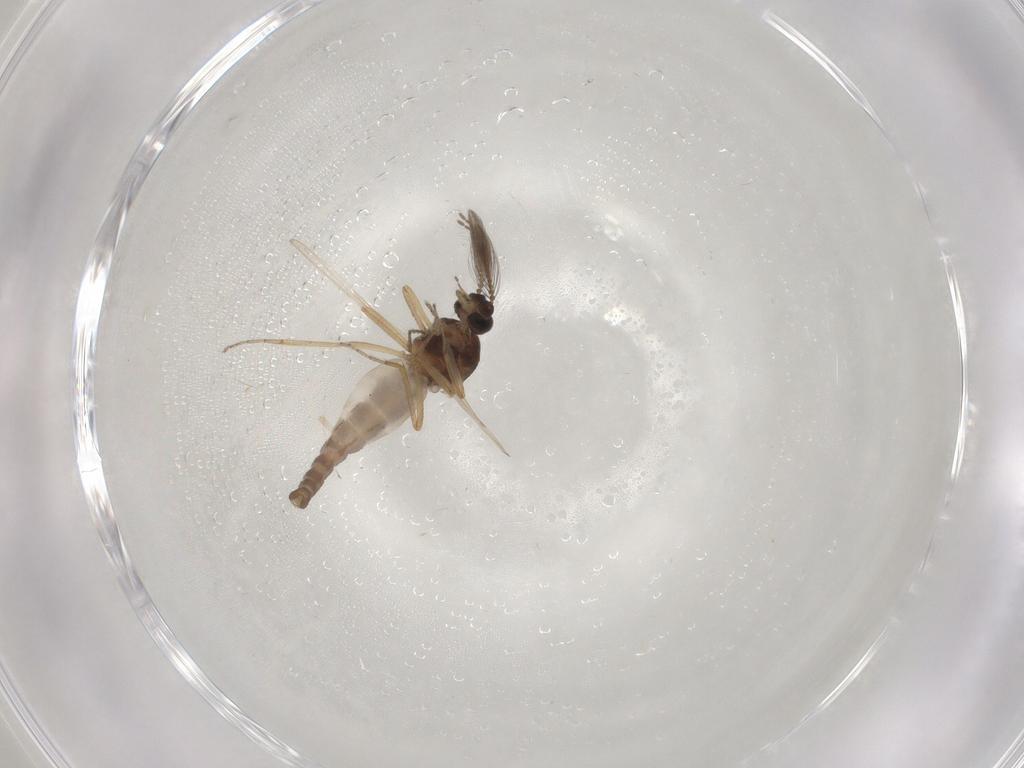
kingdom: Animalia
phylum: Arthropoda
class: Insecta
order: Diptera
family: Ceratopogonidae
